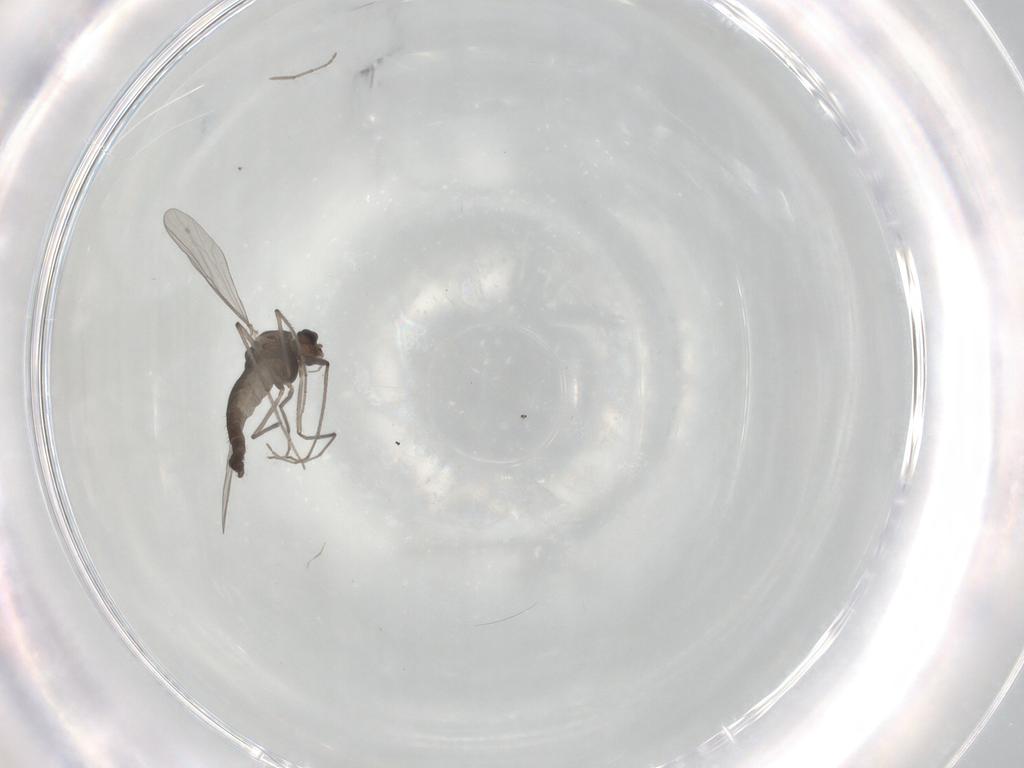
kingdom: Animalia
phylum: Arthropoda
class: Insecta
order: Diptera
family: Chironomidae
